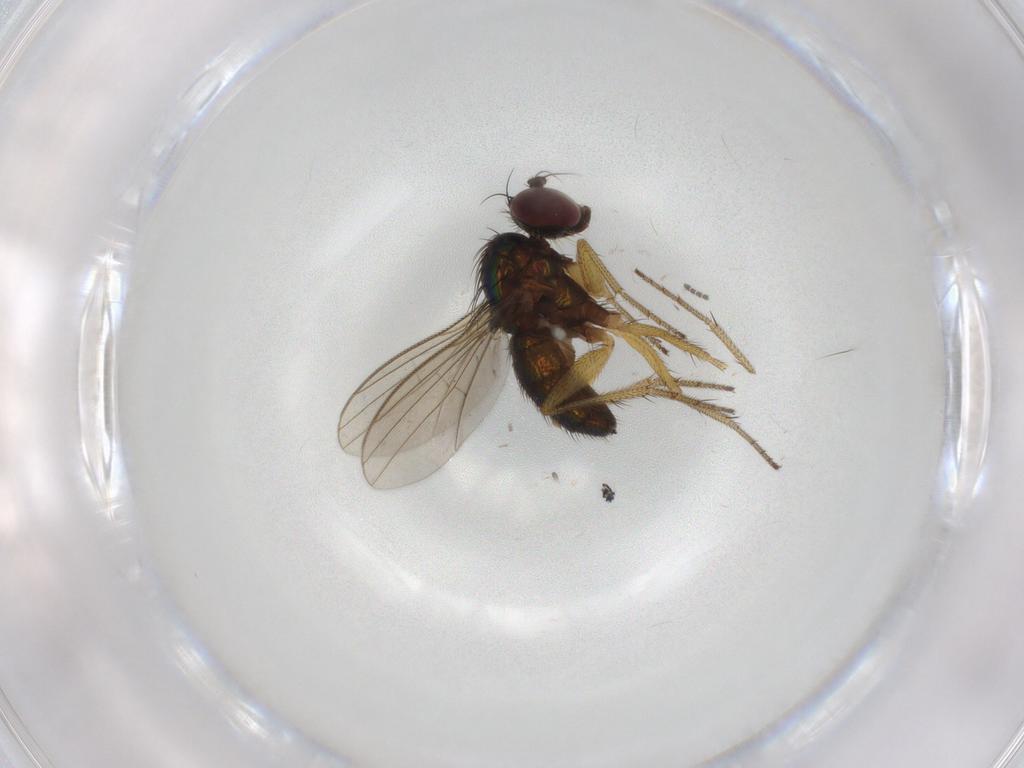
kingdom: Animalia
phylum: Arthropoda
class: Insecta
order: Diptera
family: Sciaridae
